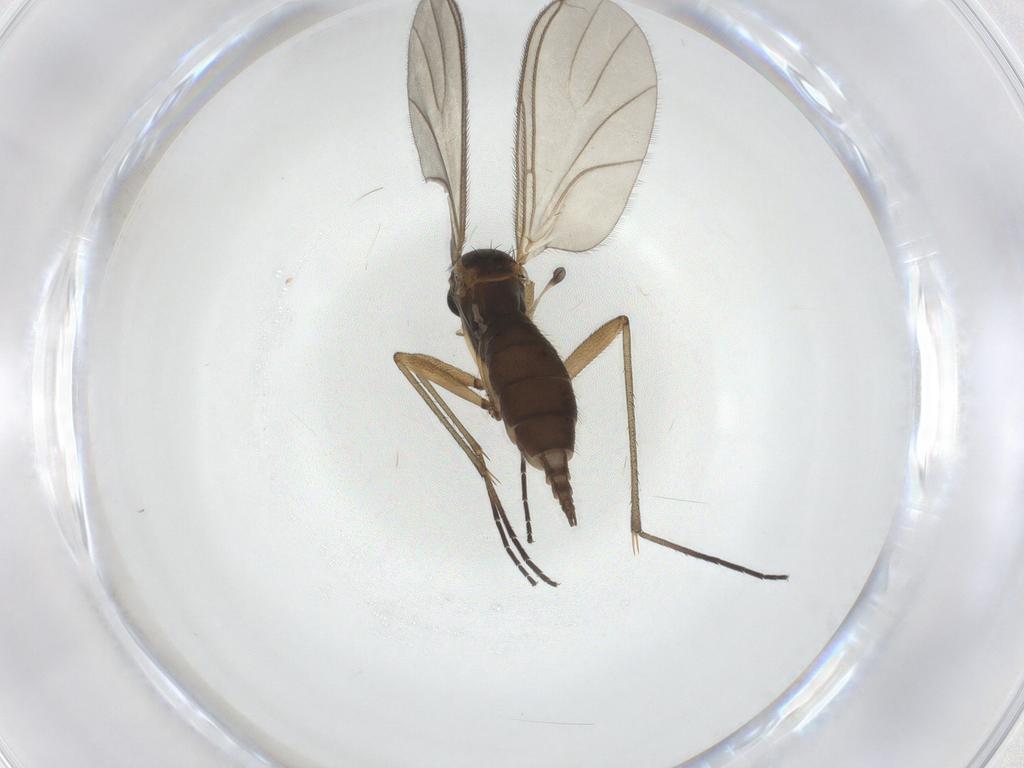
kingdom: Animalia
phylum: Arthropoda
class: Insecta
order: Diptera
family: Sciaridae
